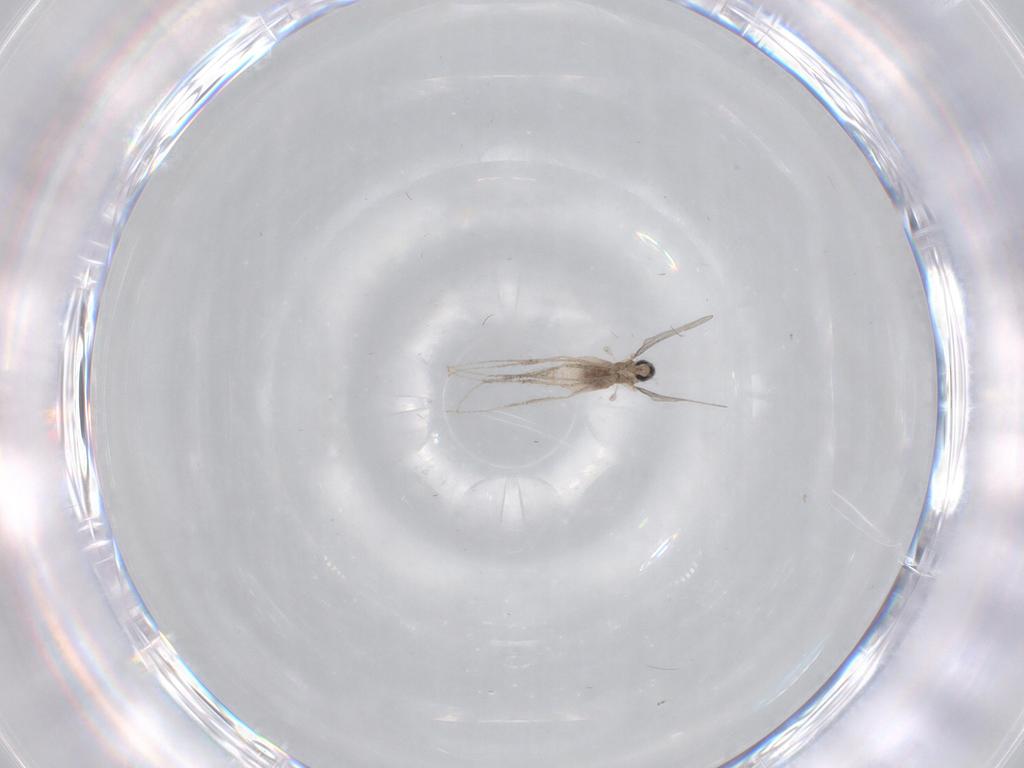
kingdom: Animalia
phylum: Arthropoda
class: Insecta
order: Diptera
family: Cecidomyiidae
